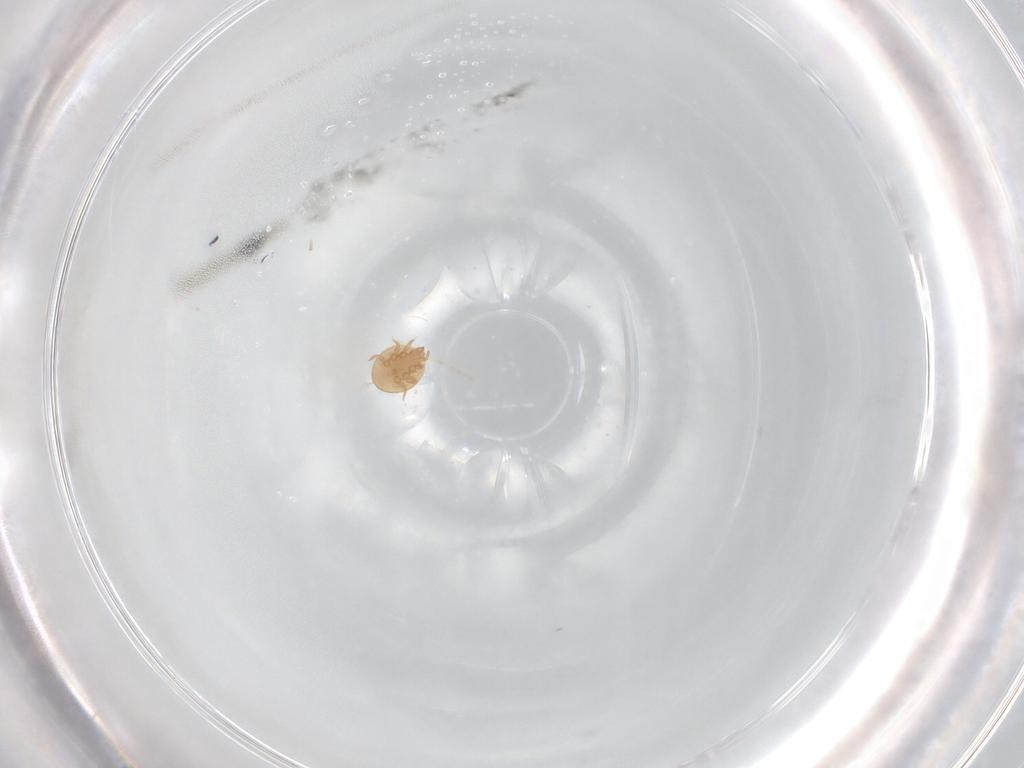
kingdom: Animalia
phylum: Arthropoda
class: Arachnida
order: Mesostigmata
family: Trematuridae
